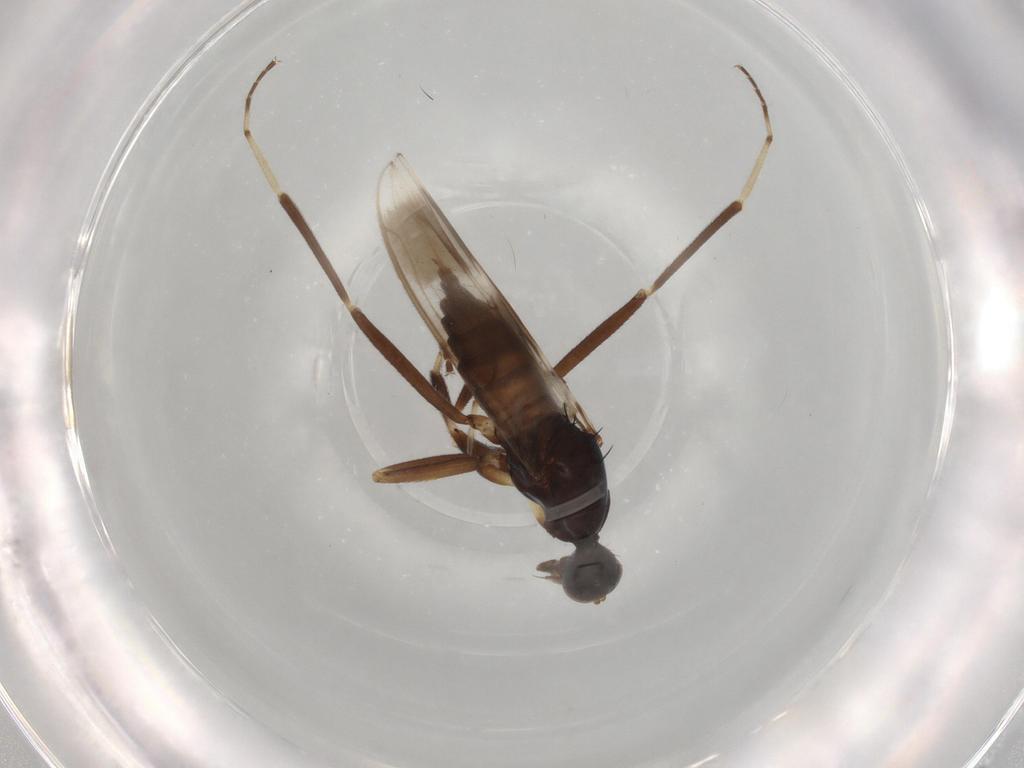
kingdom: Animalia
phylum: Arthropoda
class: Insecta
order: Diptera
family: Hybotidae
